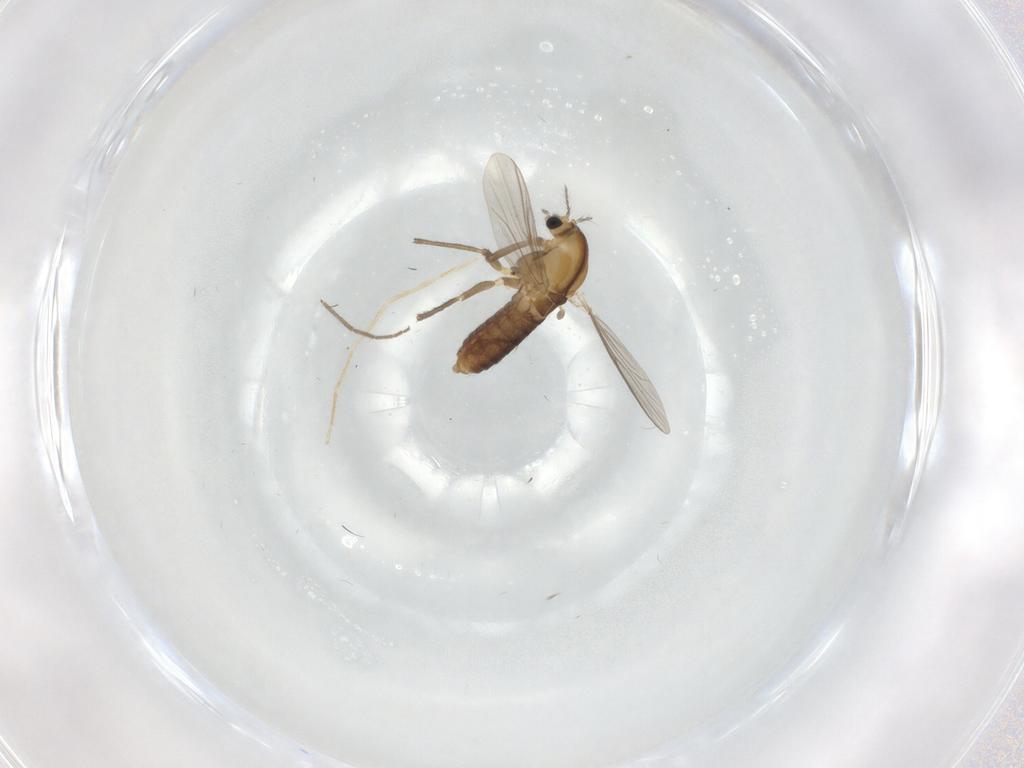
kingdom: Animalia
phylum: Arthropoda
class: Insecta
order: Diptera
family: Chironomidae
